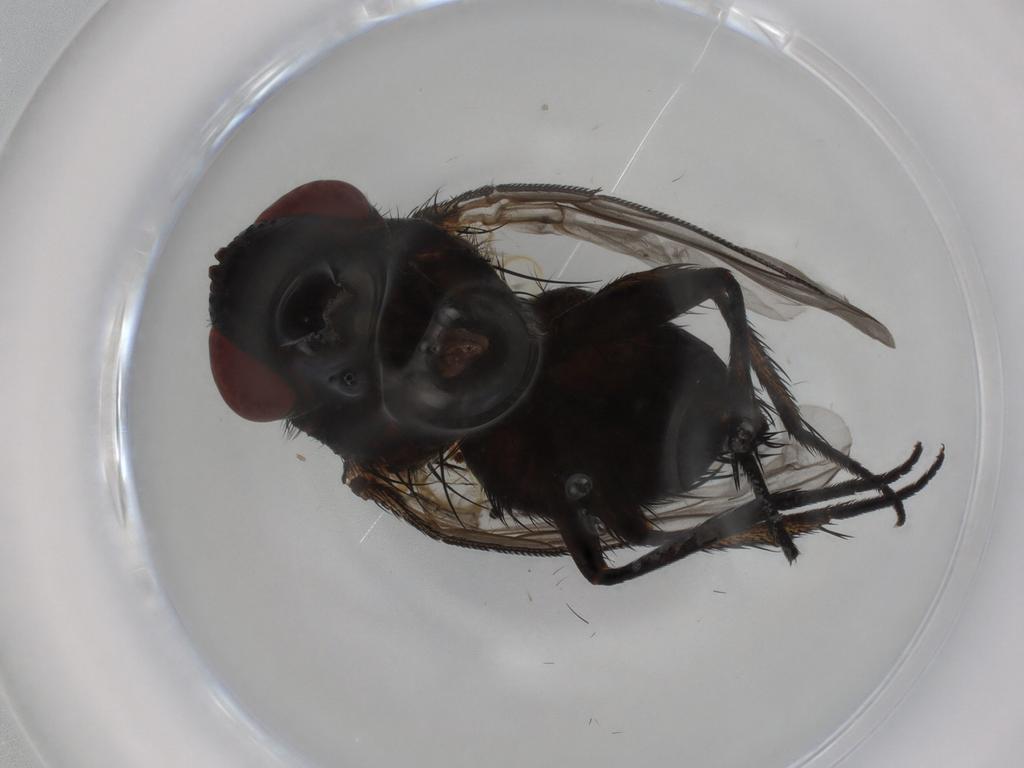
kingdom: Animalia
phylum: Arthropoda
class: Insecta
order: Diptera
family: Tachinidae
